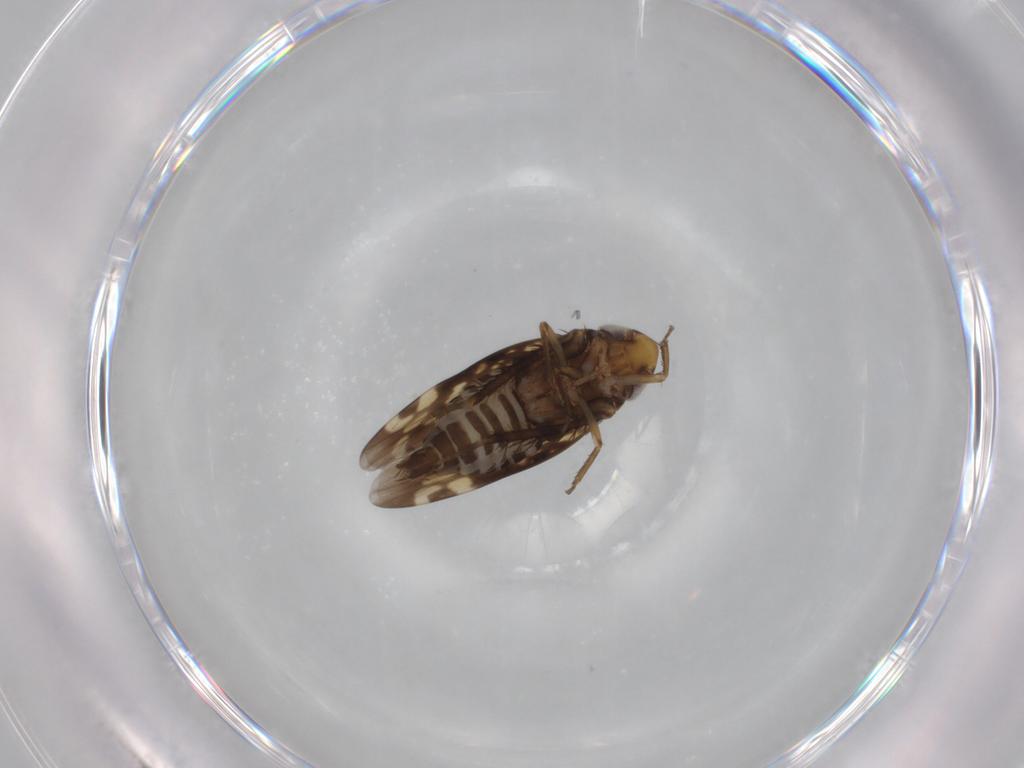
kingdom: Animalia
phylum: Arthropoda
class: Insecta
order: Hemiptera
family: Cicadellidae
